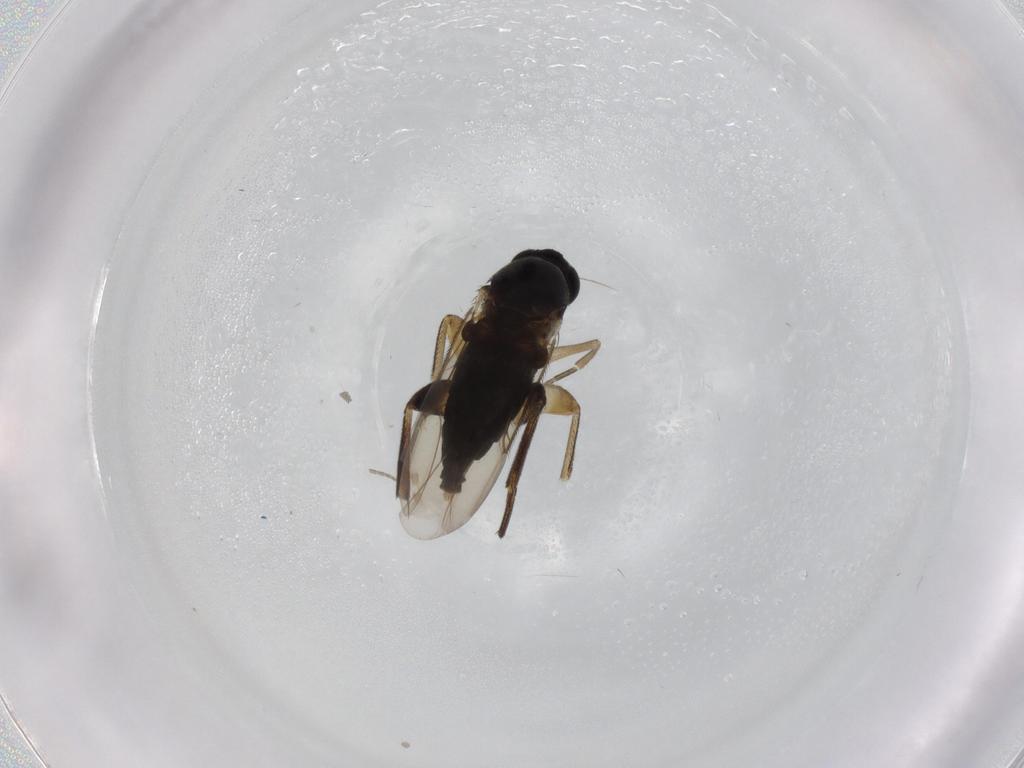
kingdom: Animalia
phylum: Arthropoda
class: Insecta
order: Diptera
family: Phoridae
